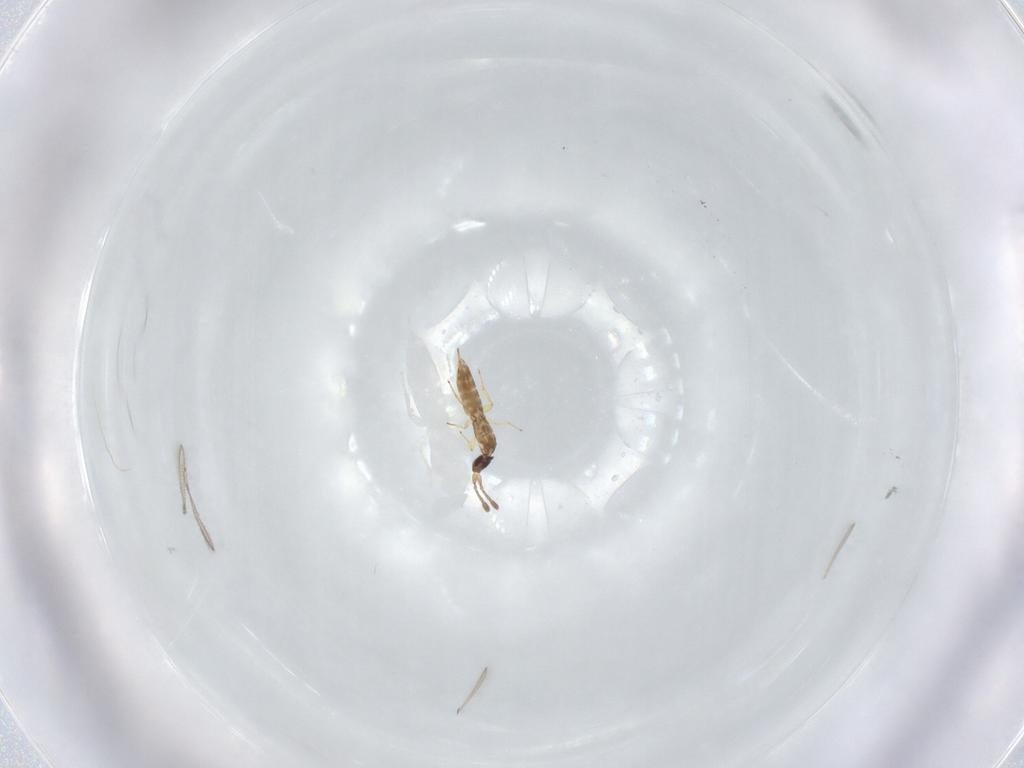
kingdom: Animalia
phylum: Arthropoda
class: Insecta
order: Hymenoptera
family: Mymaridae
